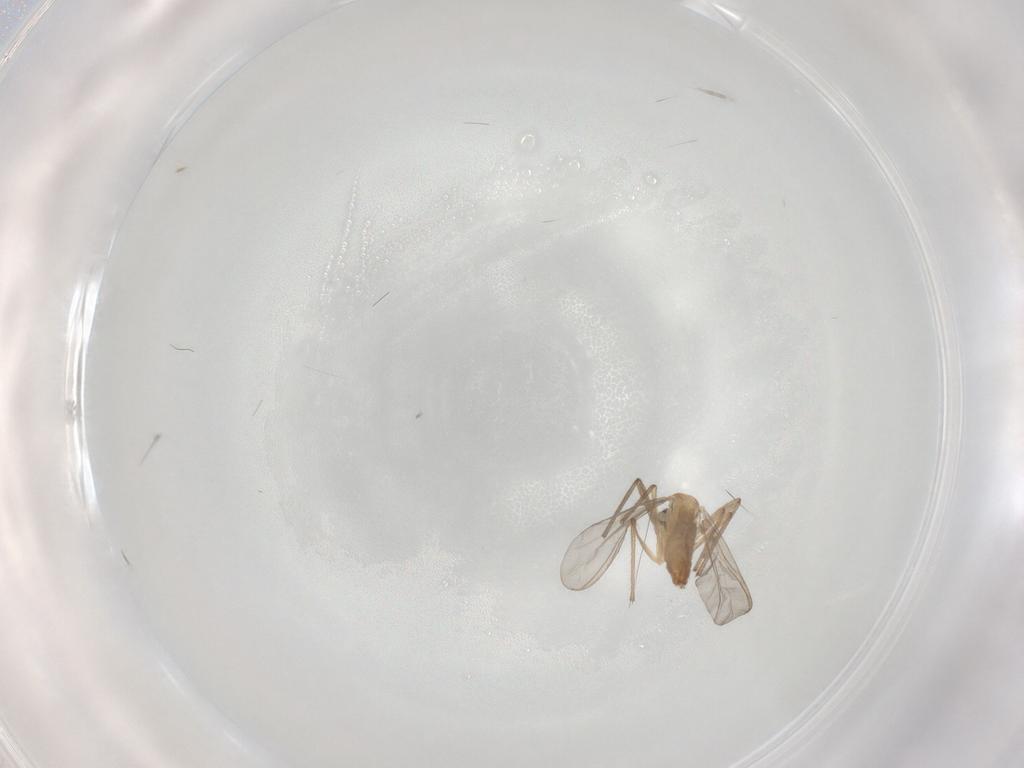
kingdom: Animalia
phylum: Arthropoda
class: Insecta
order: Diptera
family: Chironomidae
